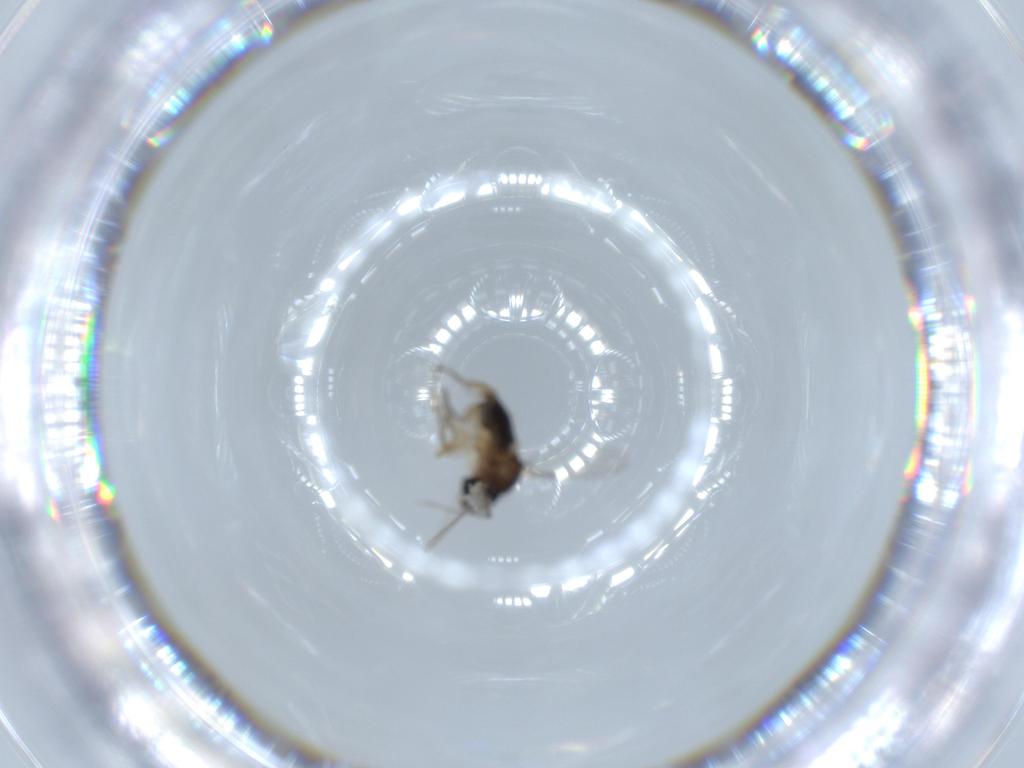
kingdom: Animalia
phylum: Arthropoda
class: Insecta
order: Diptera
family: Phoridae
